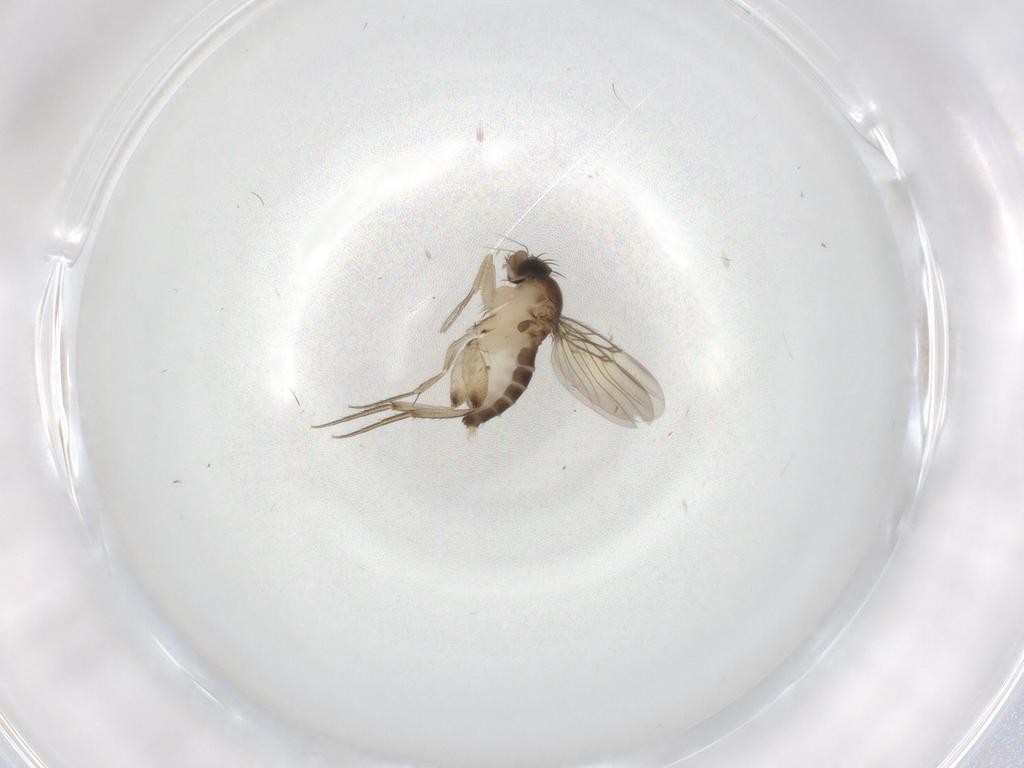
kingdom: Animalia
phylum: Arthropoda
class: Insecta
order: Diptera
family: Phoridae
